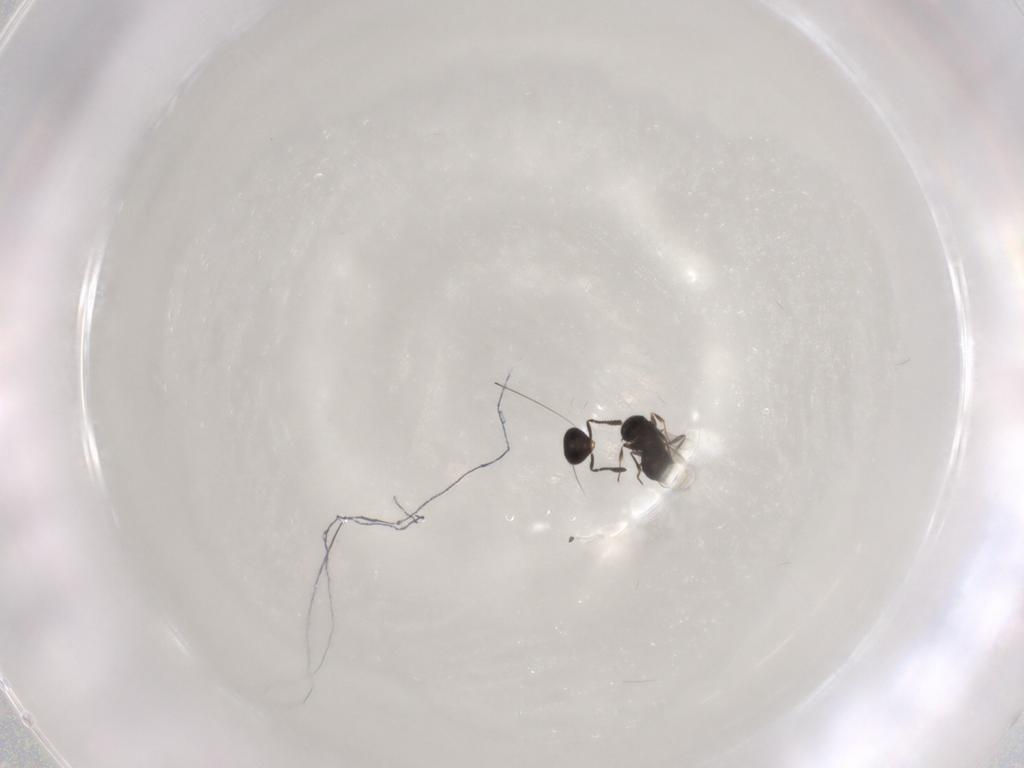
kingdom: Animalia
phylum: Arthropoda
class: Insecta
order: Hymenoptera
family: Scelionidae
